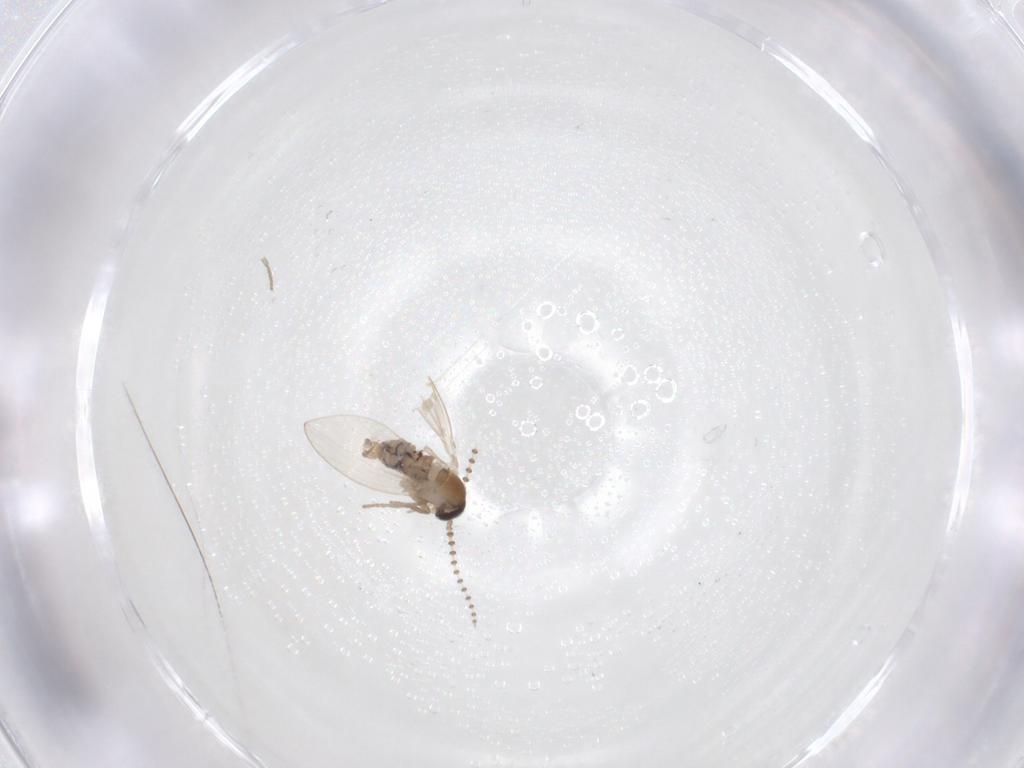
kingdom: Animalia
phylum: Arthropoda
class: Insecta
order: Diptera
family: Psychodidae
